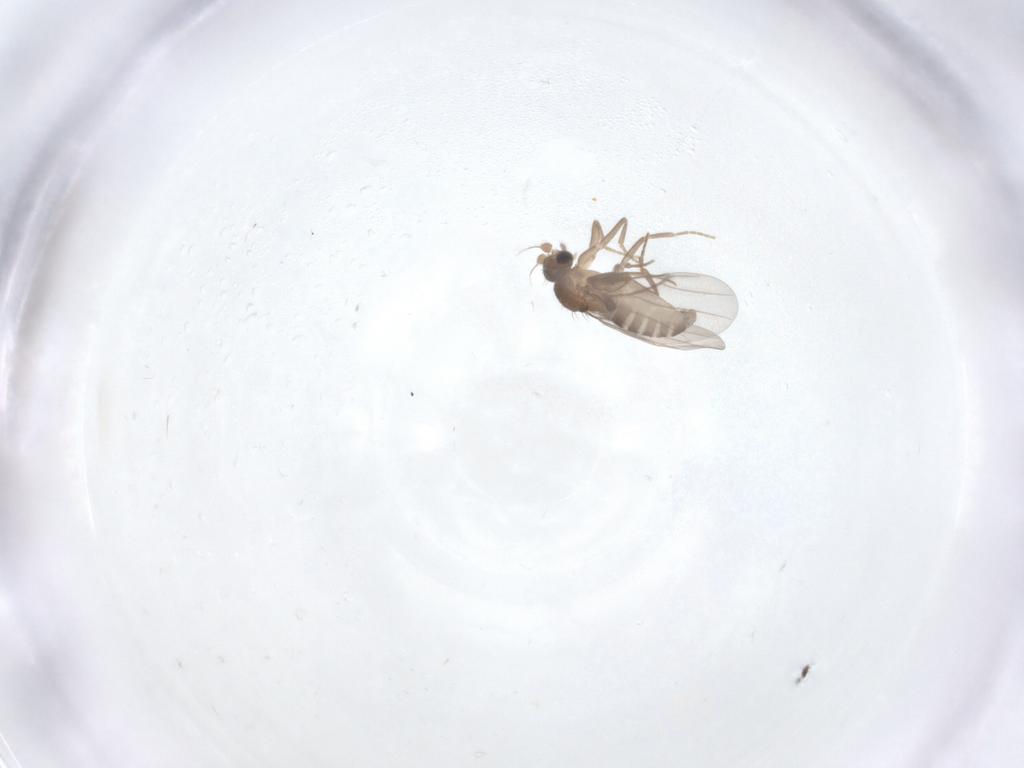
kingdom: Animalia
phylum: Arthropoda
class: Insecta
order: Diptera
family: Limoniidae
